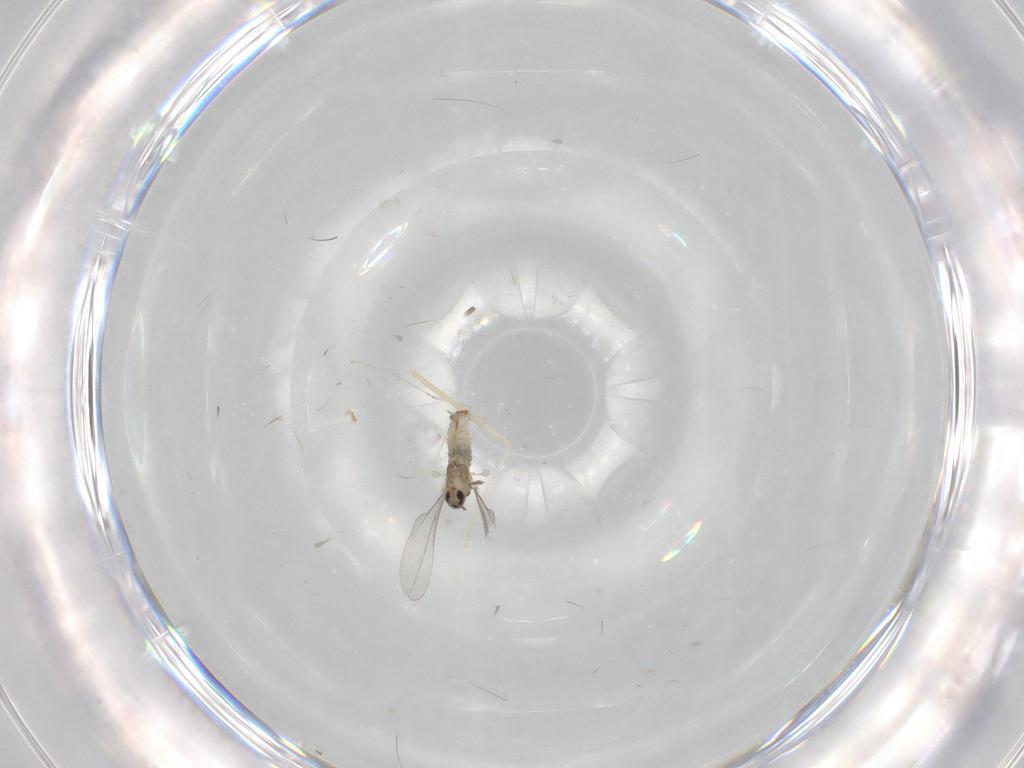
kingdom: Animalia
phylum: Arthropoda
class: Insecta
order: Diptera
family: Cecidomyiidae
